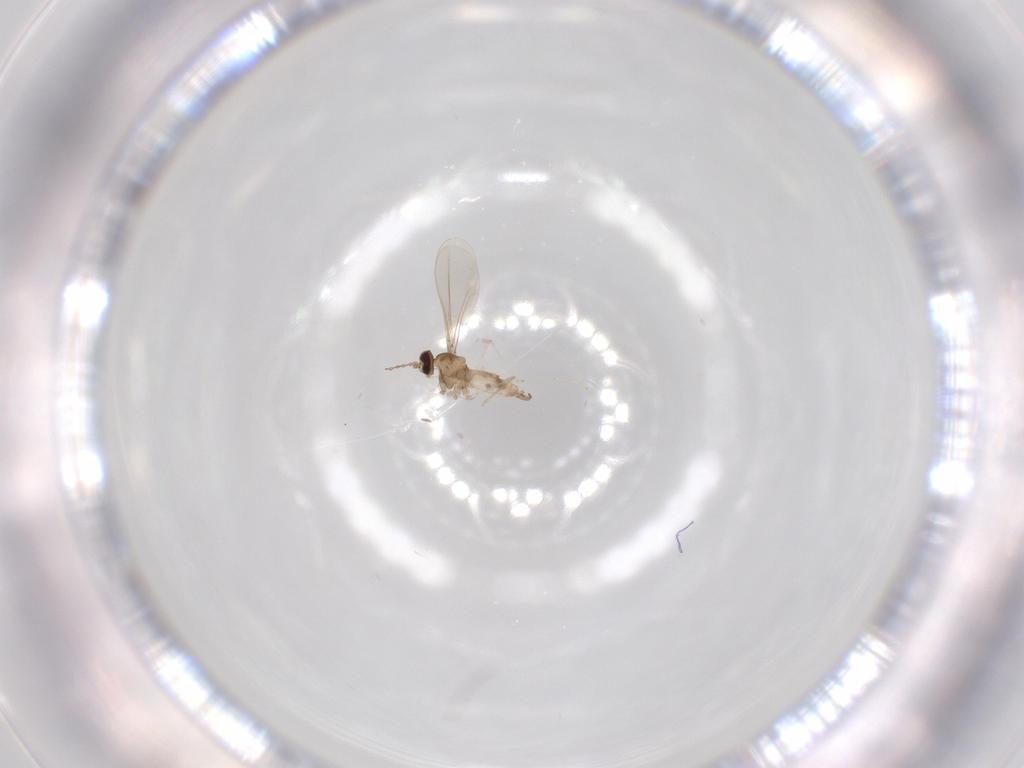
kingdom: Animalia
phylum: Arthropoda
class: Insecta
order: Diptera
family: Cecidomyiidae
